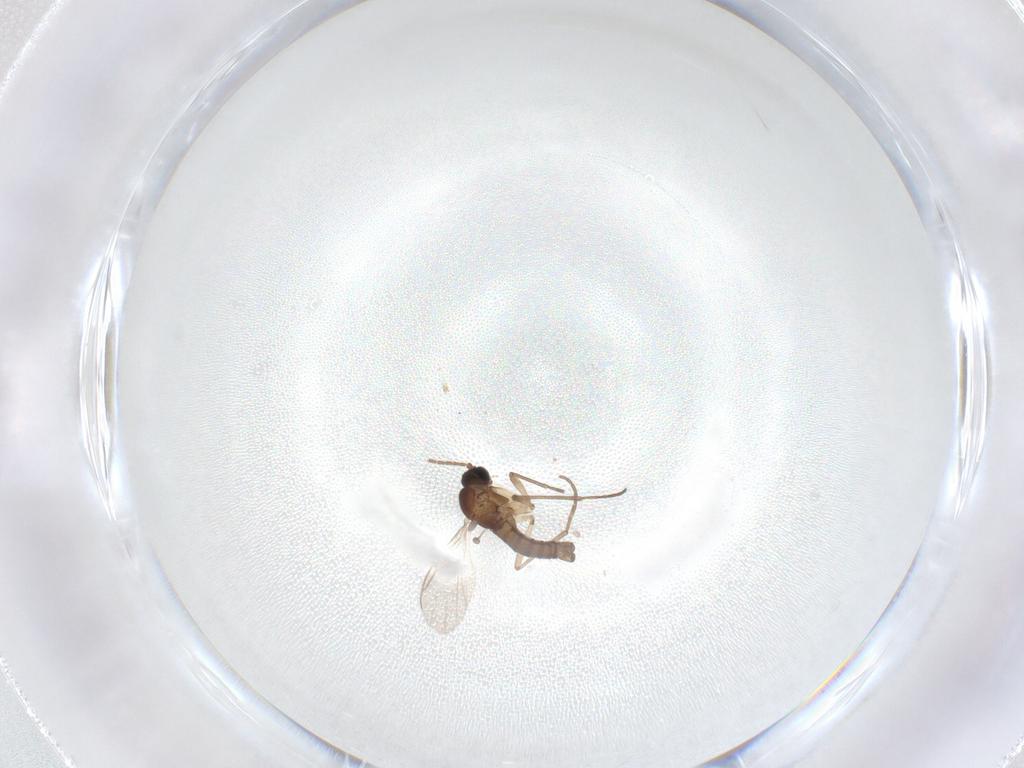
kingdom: Animalia
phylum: Arthropoda
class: Insecta
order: Diptera
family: Sciaridae
